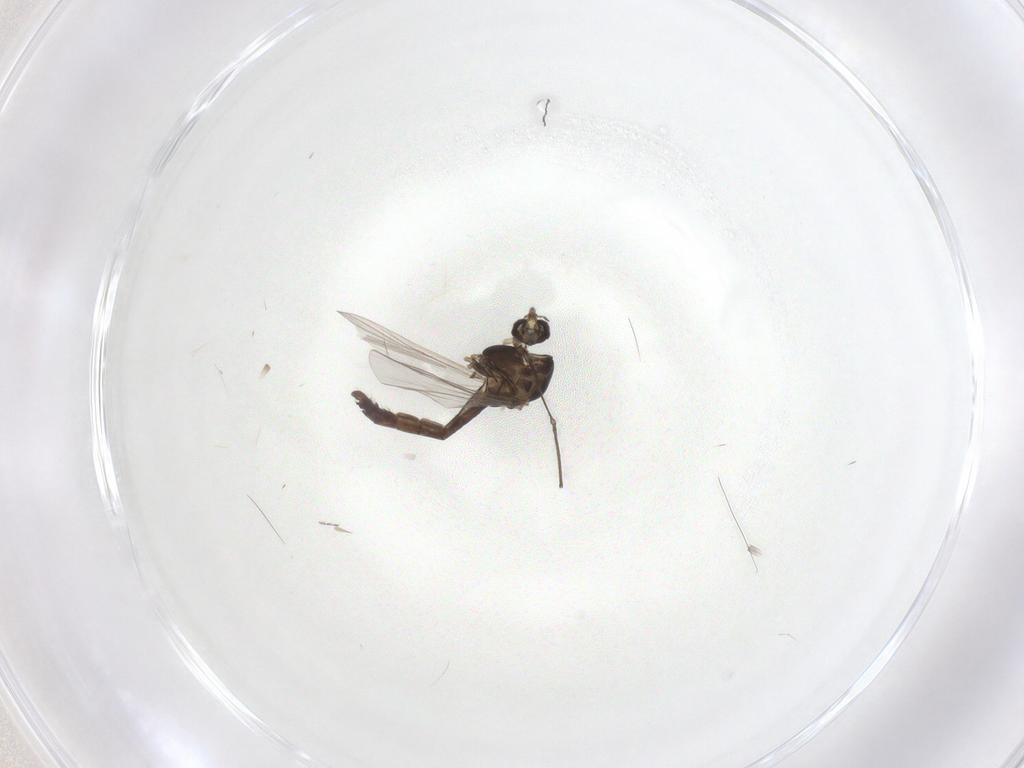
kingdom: Animalia
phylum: Arthropoda
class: Insecta
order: Diptera
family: Chironomidae
